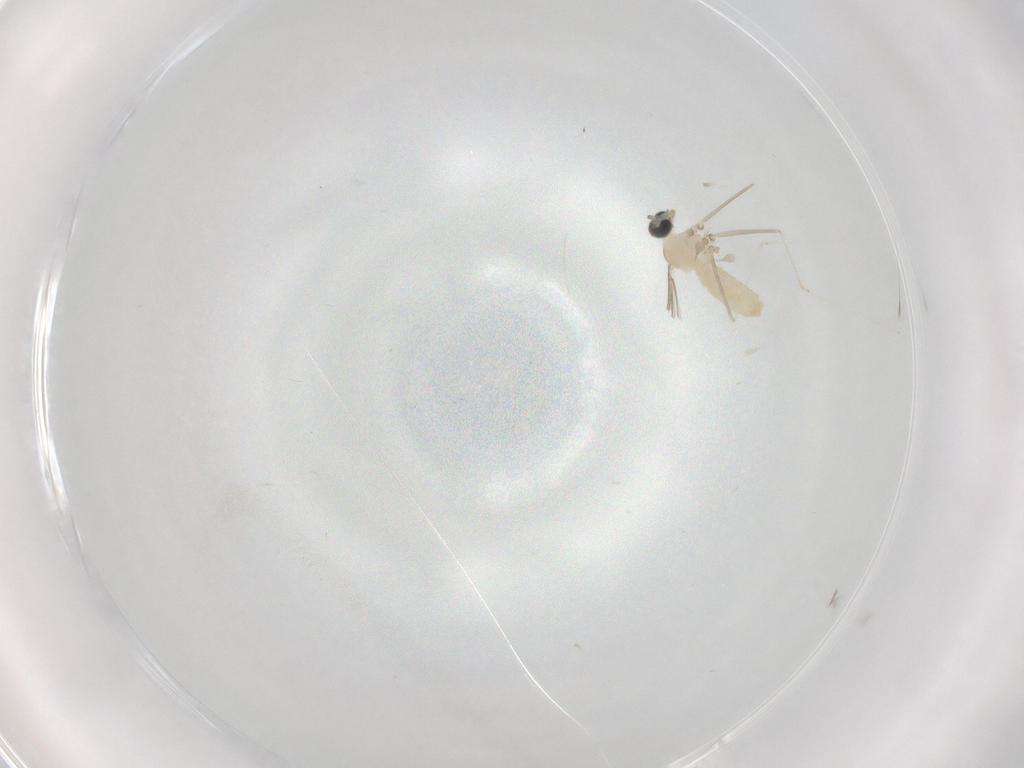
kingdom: Animalia
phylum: Arthropoda
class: Insecta
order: Diptera
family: Cecidomyiidae
